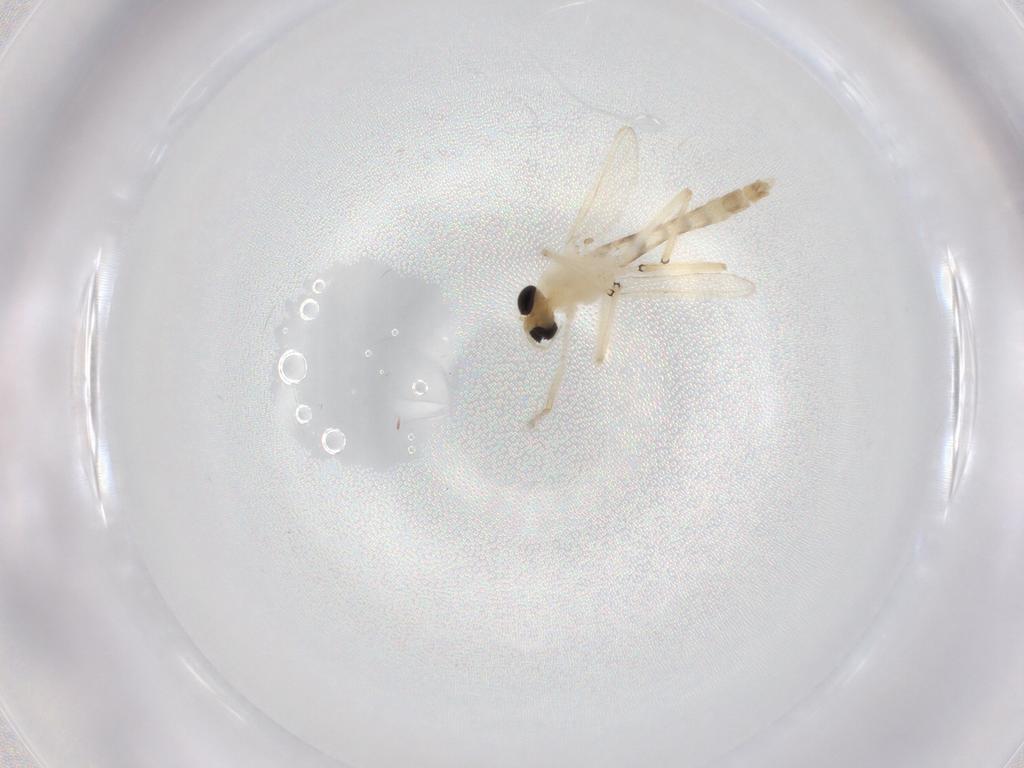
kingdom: Animalia
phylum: Arthropoda
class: Insecta
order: Diptera
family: Chironomidae
